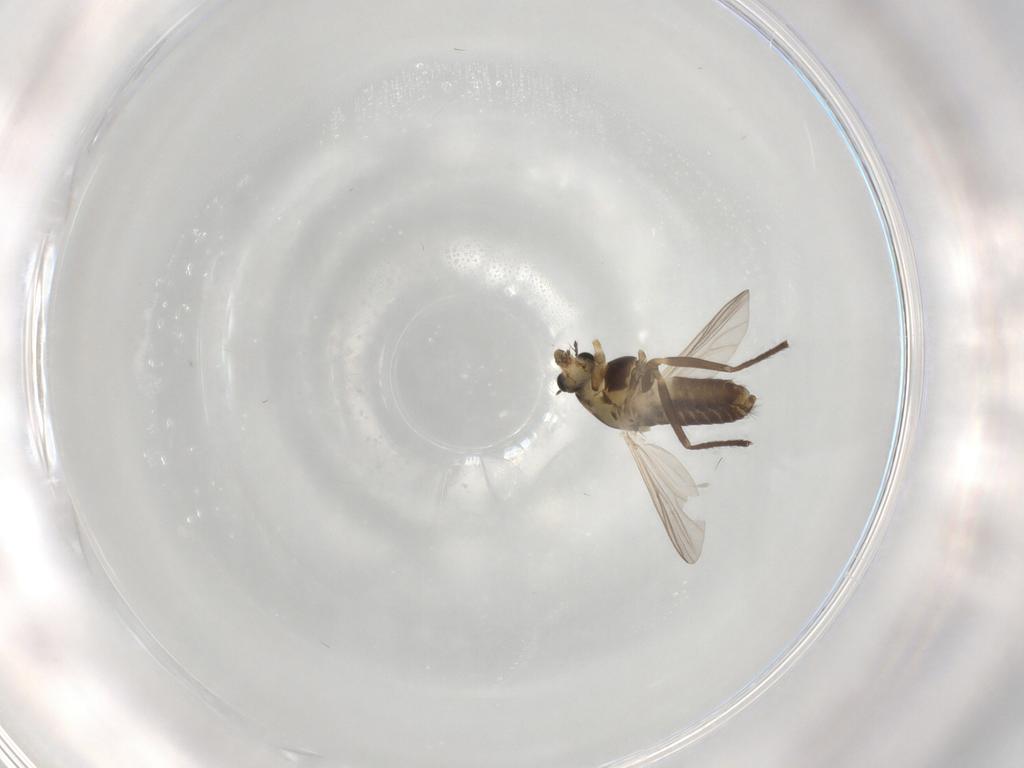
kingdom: Animalia
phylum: Arthropoda
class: Insecta
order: Diptera
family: Chironomidae
